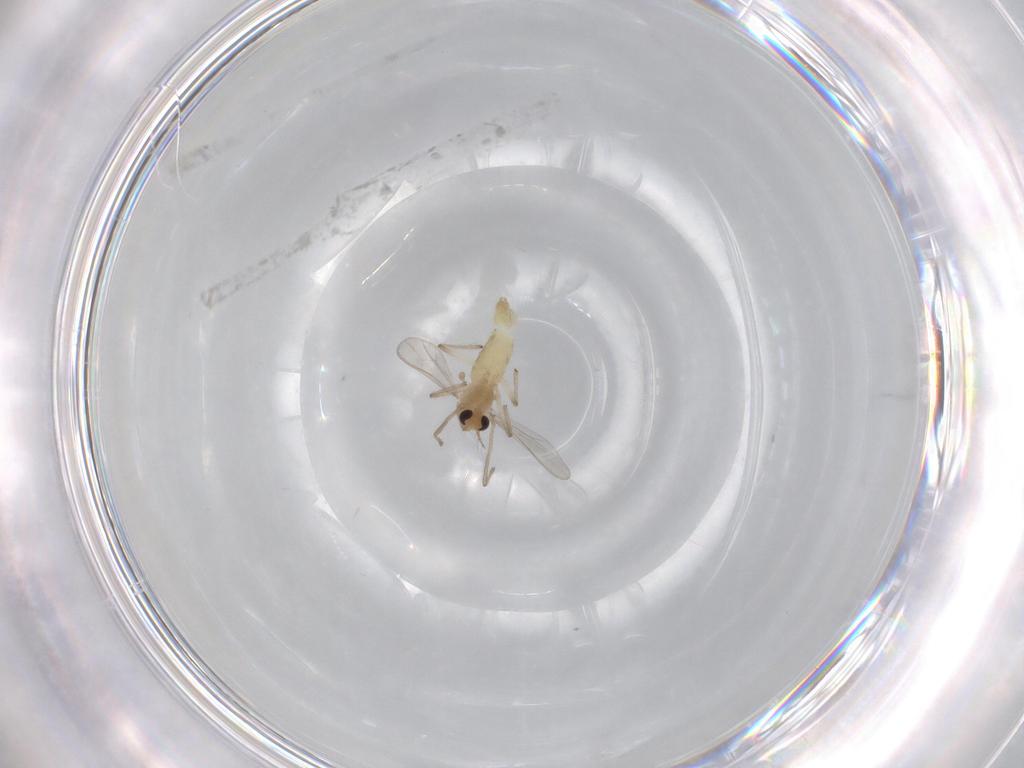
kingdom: Animalia
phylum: Arthropoda
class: Insecta
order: Diptera
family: Chironomidae
